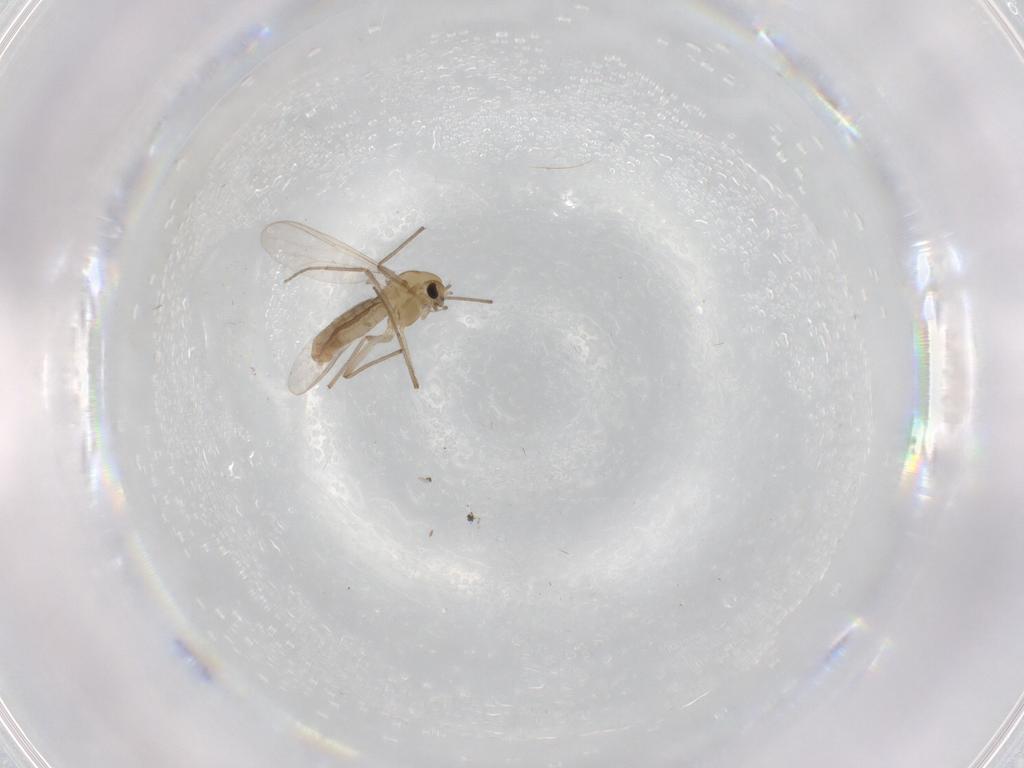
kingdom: Animalia
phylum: Arthropoda
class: Insecta
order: Diptera
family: Chironomidae
